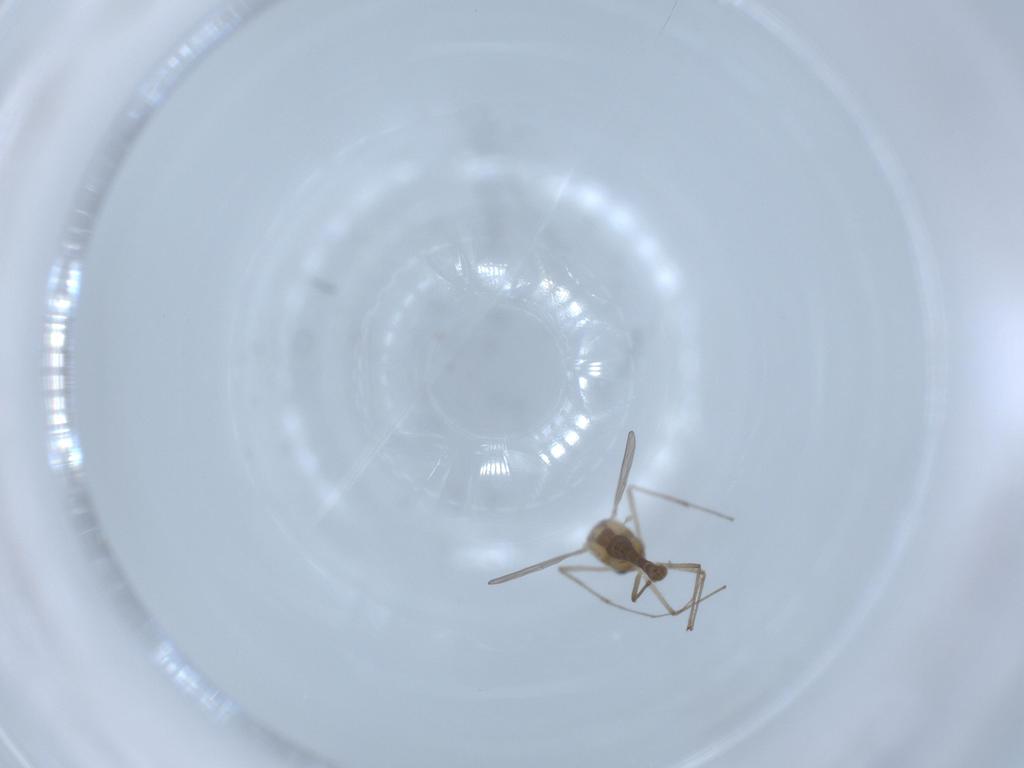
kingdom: Animalia
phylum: Arthropoda
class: Insecta
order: Diptera
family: Chironomidae
